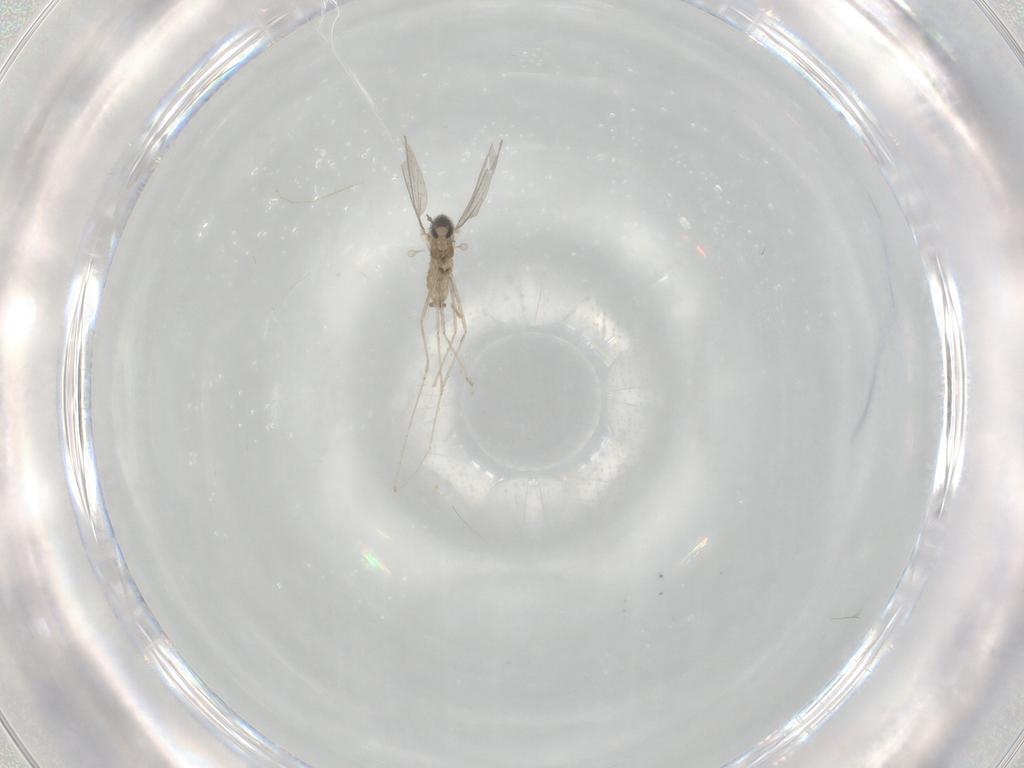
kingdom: Animalia
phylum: Arthropoda
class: Insecta
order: Diptera
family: Cecidomyiidae
